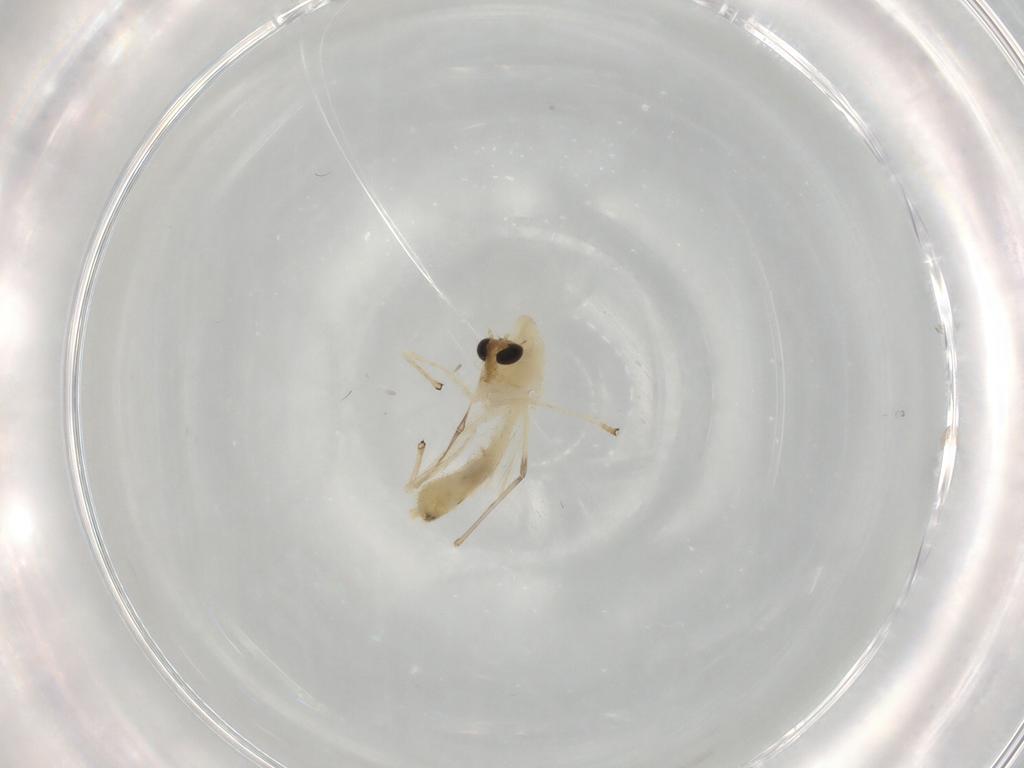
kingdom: Animalia
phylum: Arthropoda
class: Insecta
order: Diptera
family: Chironomidae
